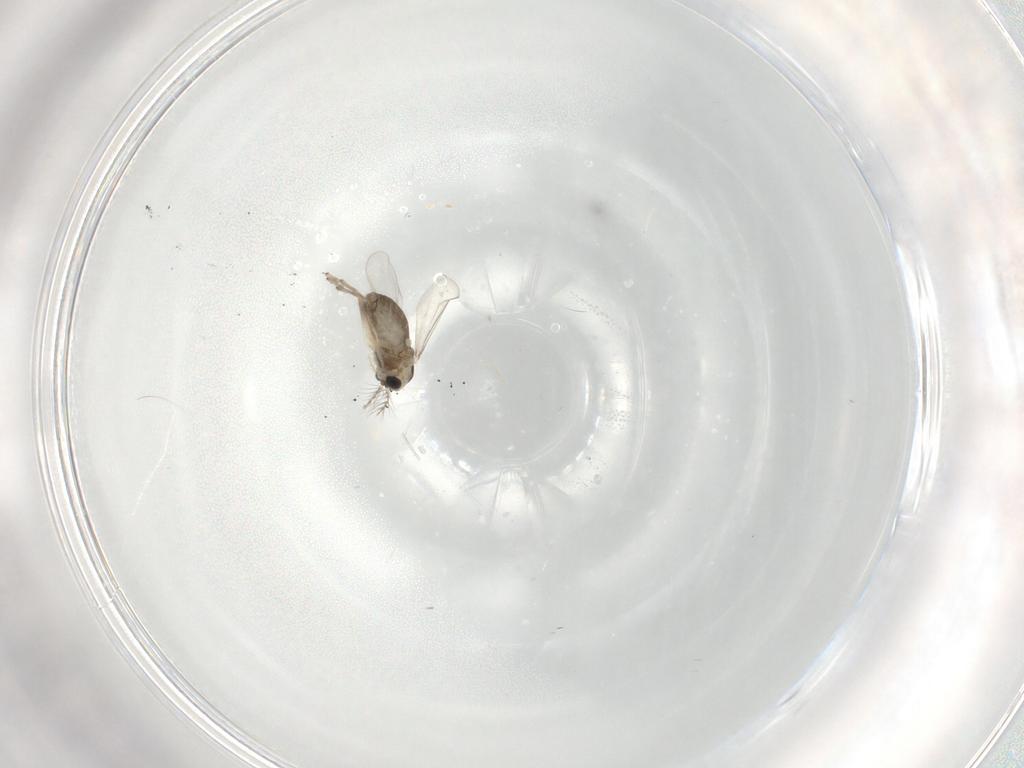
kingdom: Animalia
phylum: Arthropoda
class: Insecta
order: Diptera
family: Chironomidae
